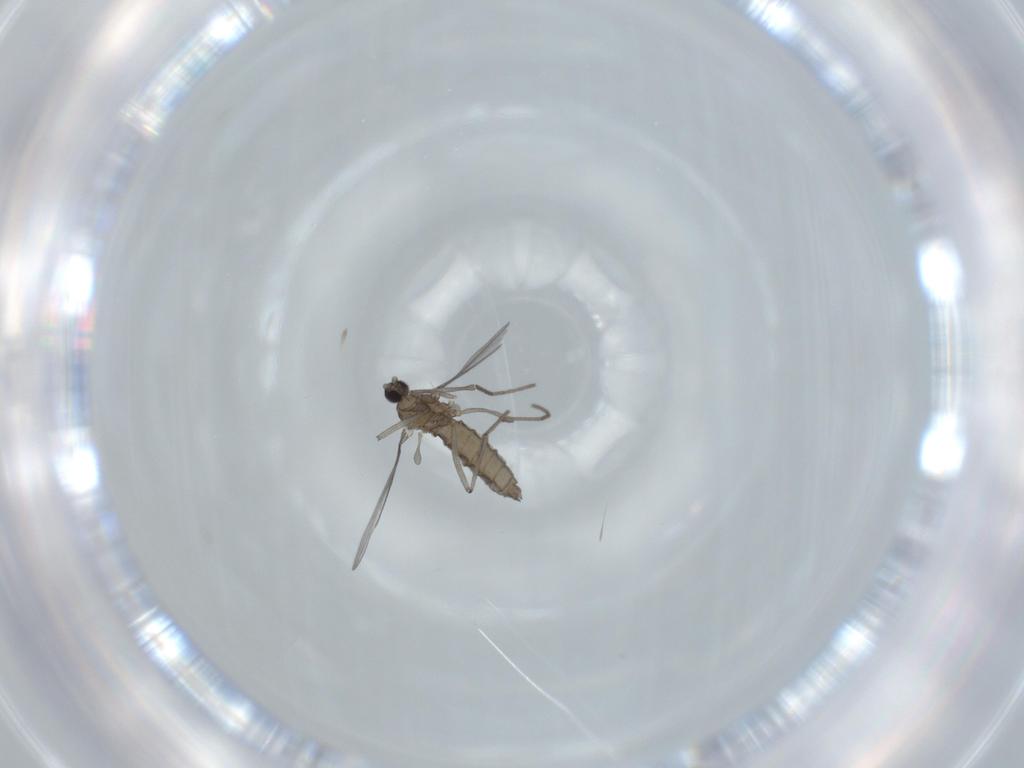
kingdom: Animalia
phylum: Arthropoda
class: Insecta
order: Diptera
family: Cecidomyiidae
